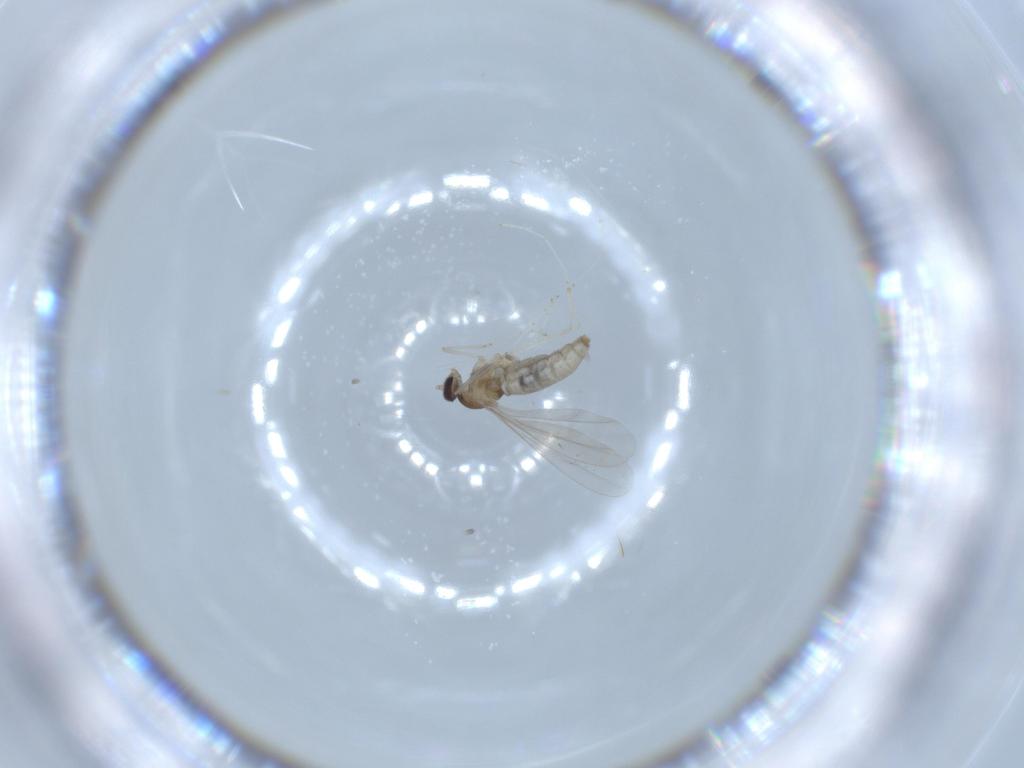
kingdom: Animalia
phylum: Arthropoda
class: Insecta
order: Diptera
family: Cecidomyiidae
